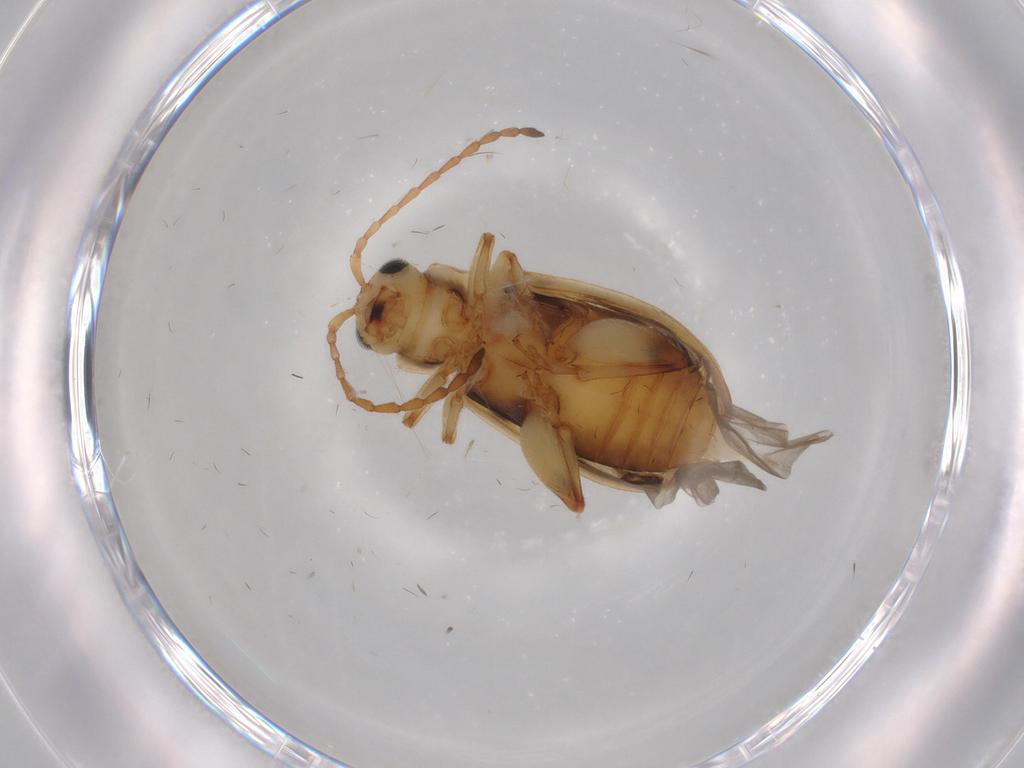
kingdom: Animalia
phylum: Arthropoda
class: Insecta
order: Coleoptera
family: Chrysomelidae
